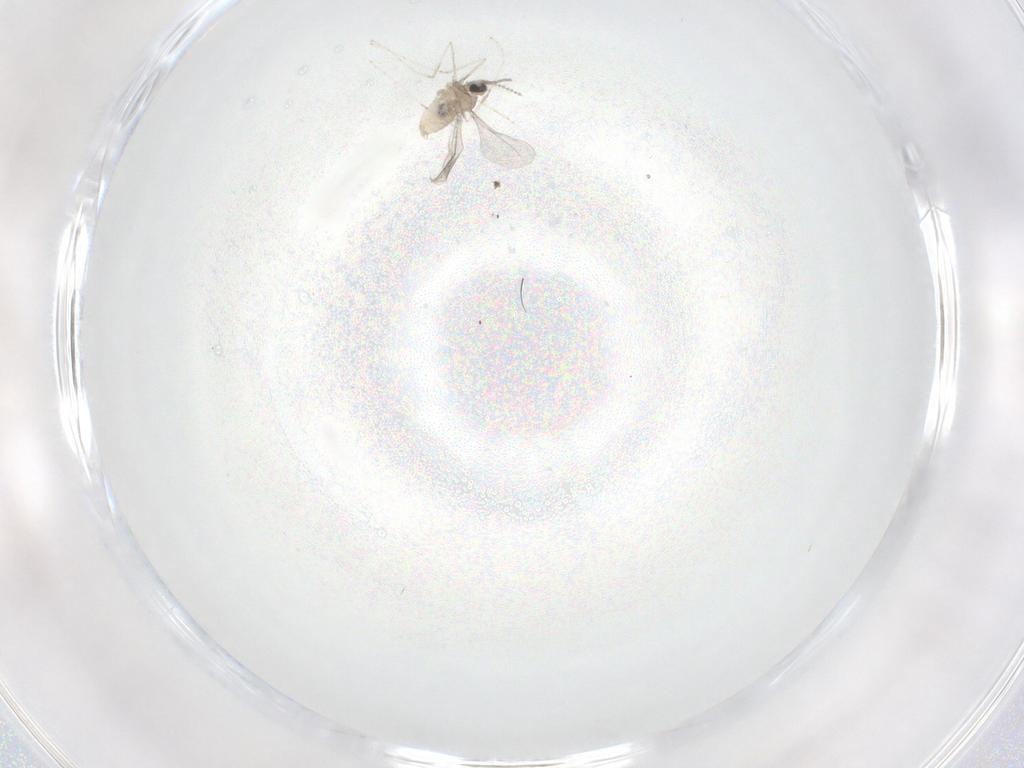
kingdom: Animalia
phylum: Arthropoda
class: Insecta
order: Diptera
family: Cecidomyiidae
